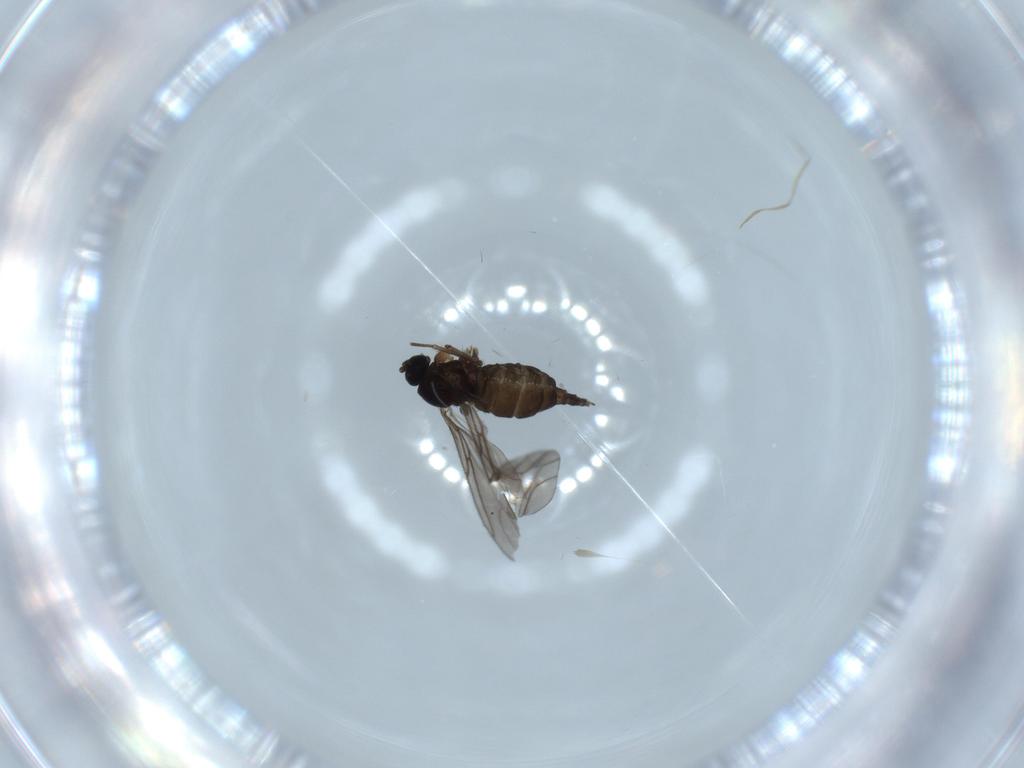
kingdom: Animalia
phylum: Arthropoda
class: Insecta
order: Diptera
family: Sciaridae
